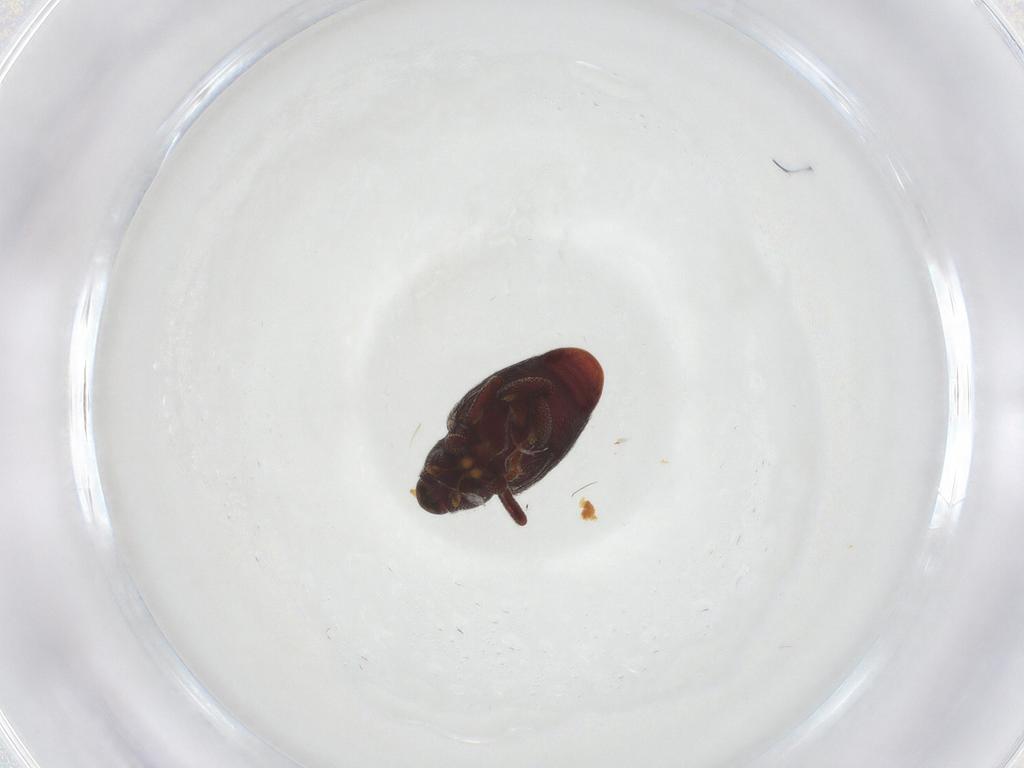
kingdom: Animalia
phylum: Arthropoda
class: Insecta
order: Coleoptera
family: Curculionidae
